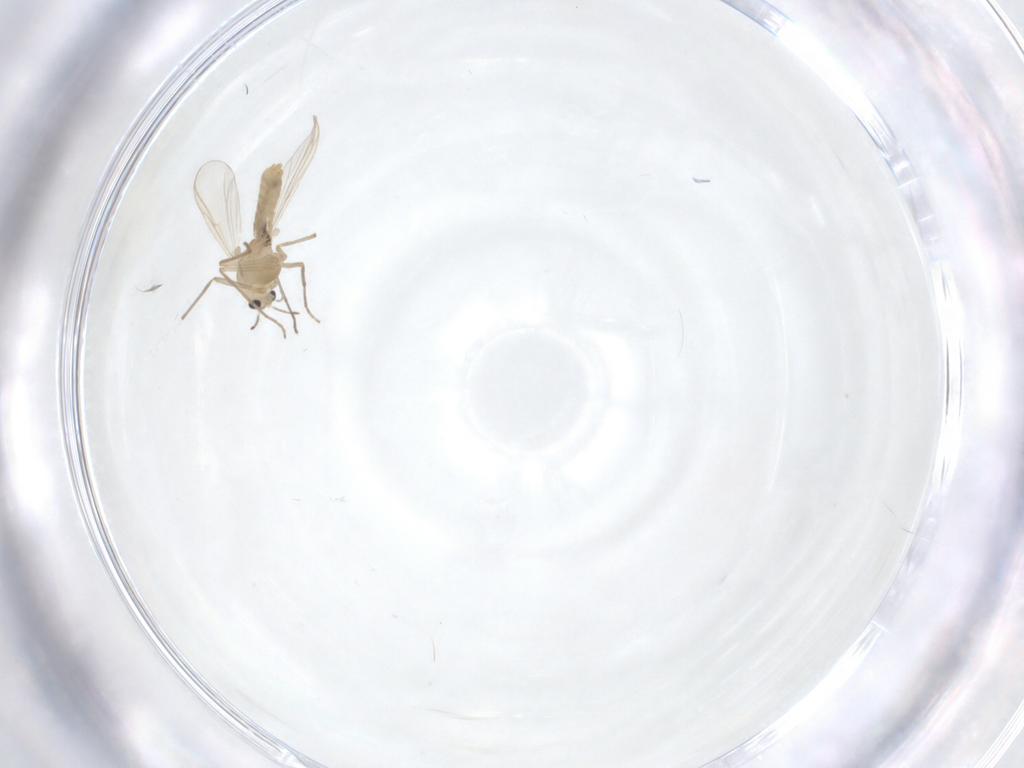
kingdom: Animalia
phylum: Arthropoda
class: Insecta
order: Diptera
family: Chironomidae
